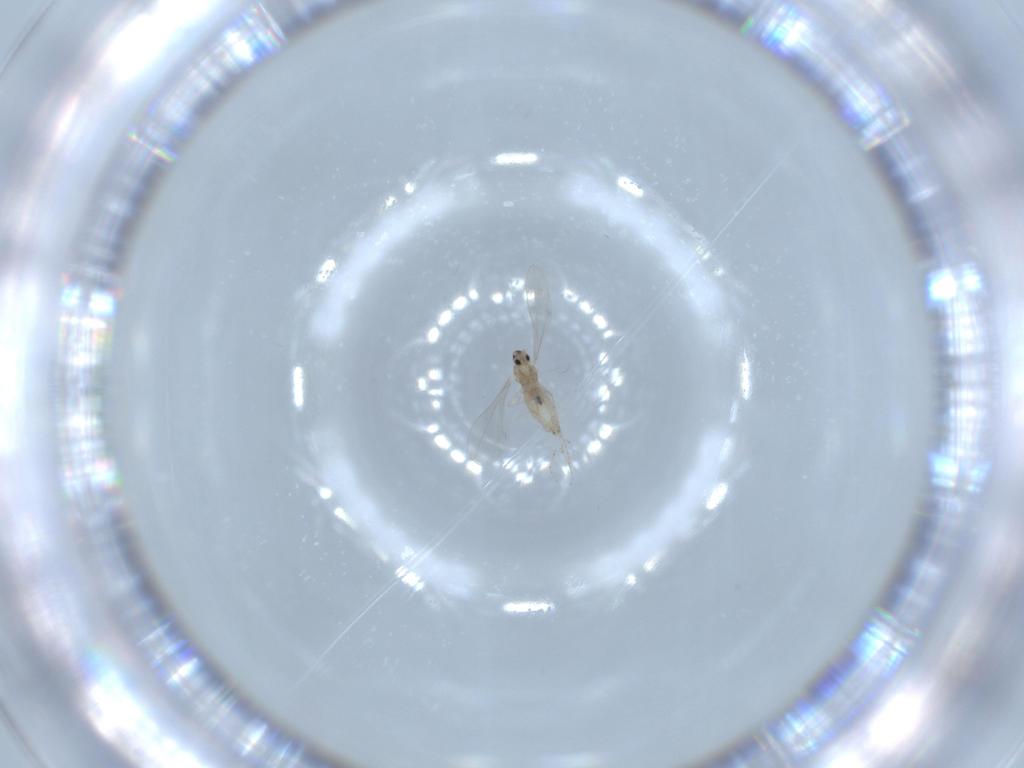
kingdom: Animalia
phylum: Arthropoda
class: Insecta
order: Diptera
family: Cecidomyiidae
